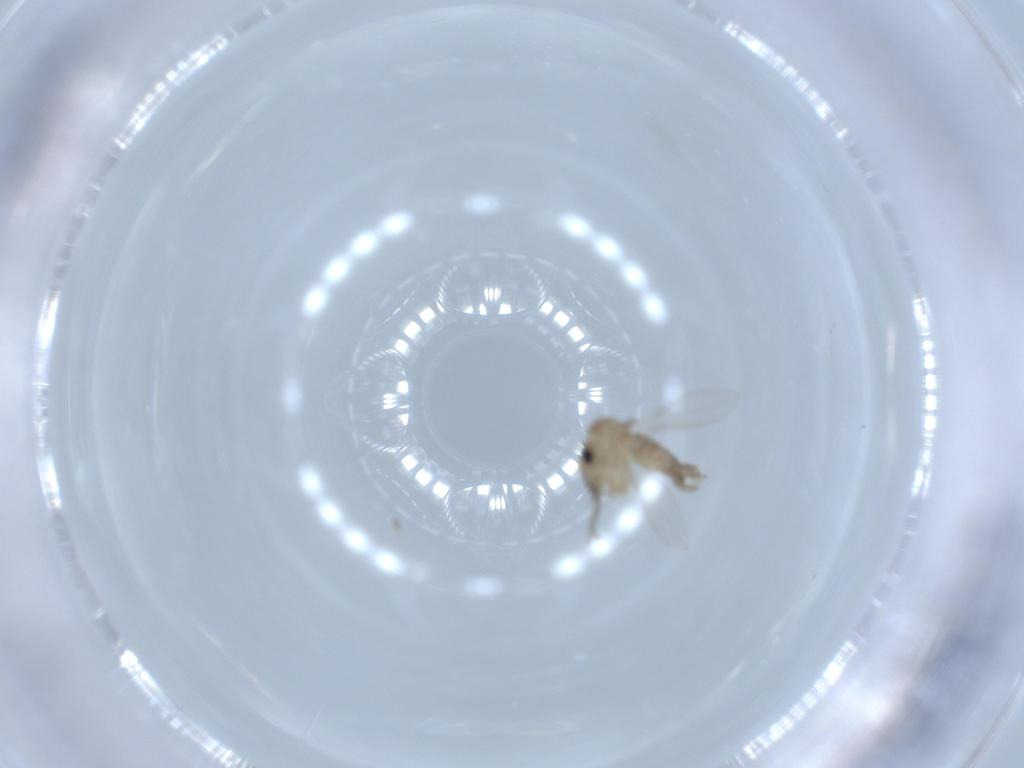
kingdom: Animalia
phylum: Arthropoda
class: Insecta
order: Diptera
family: Psychodidae
